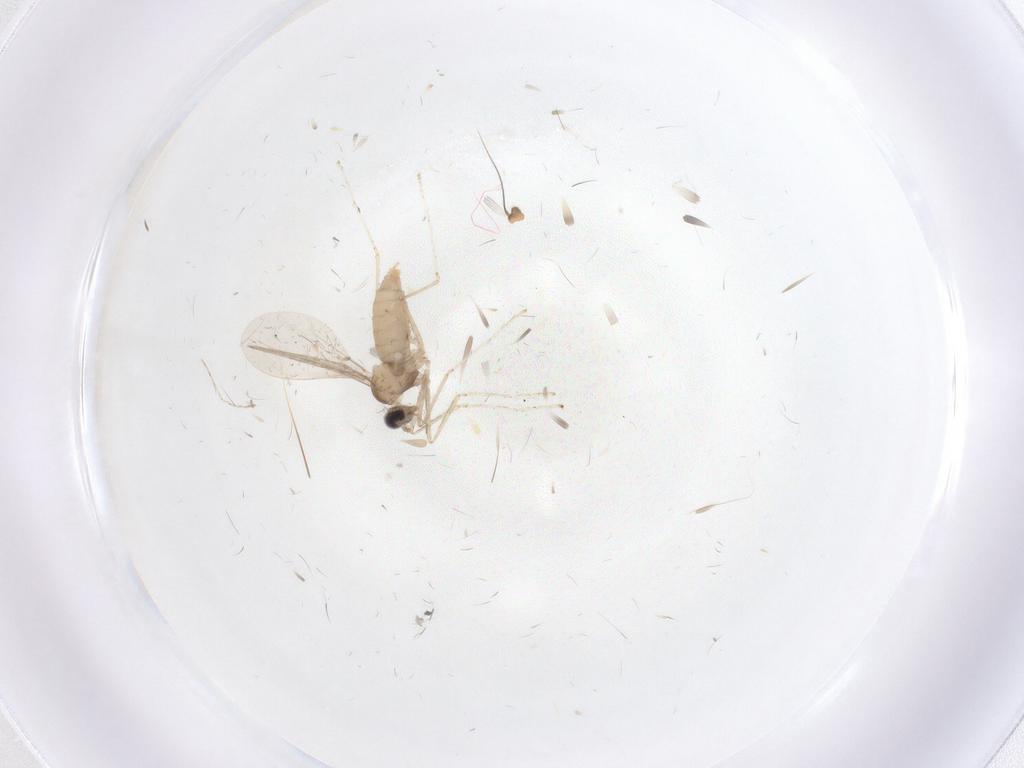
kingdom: Animalia
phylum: Arthropoda
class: Insecta
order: Diptera
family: Cecidomyiidae
